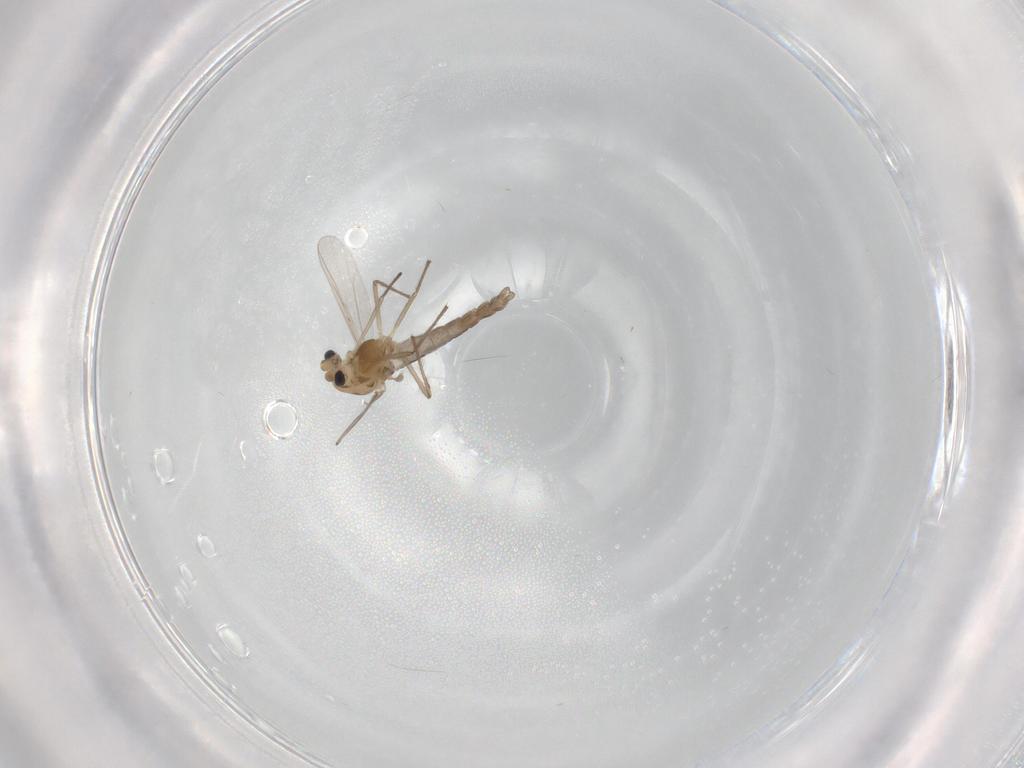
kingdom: Animalia
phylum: Arthropoda
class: Insecta
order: Diptera
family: Chironomidae
